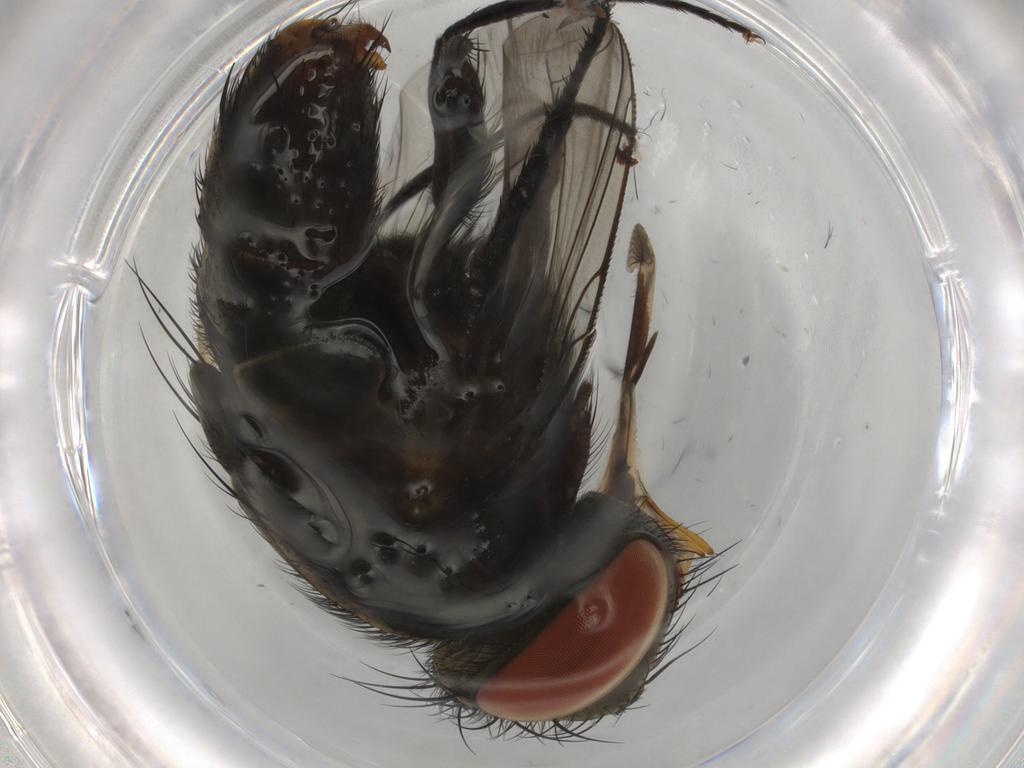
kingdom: Animalia
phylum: Arthropoda
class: Insecta
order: Diptera
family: Sarcophagidae
